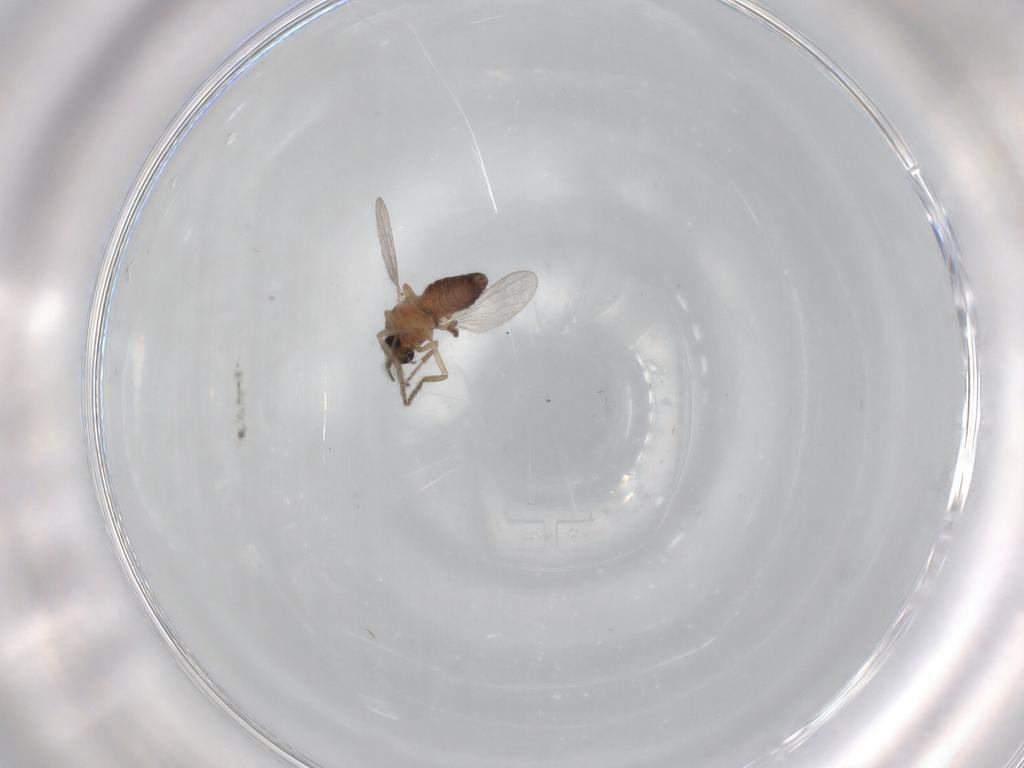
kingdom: Animalia
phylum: Arthropoda
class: Insecta
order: Diptera
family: Ceratopogonidae
